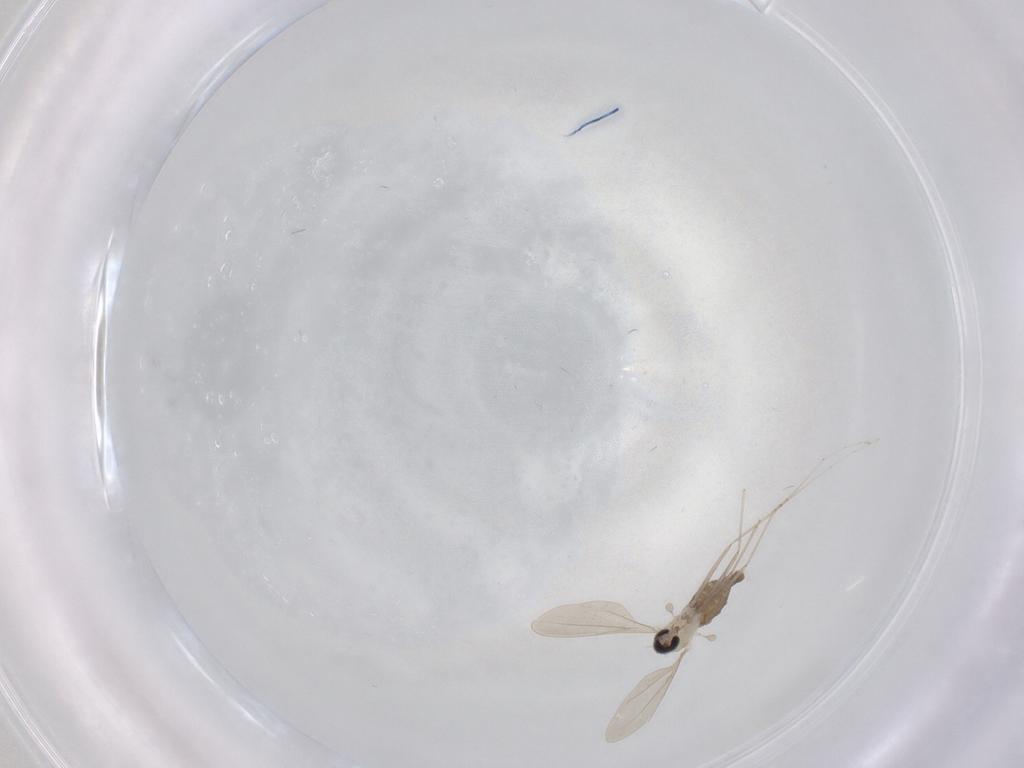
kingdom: Animalia
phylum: Arthropoda
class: Insecta
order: Diptera
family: Cecidomyiidae
